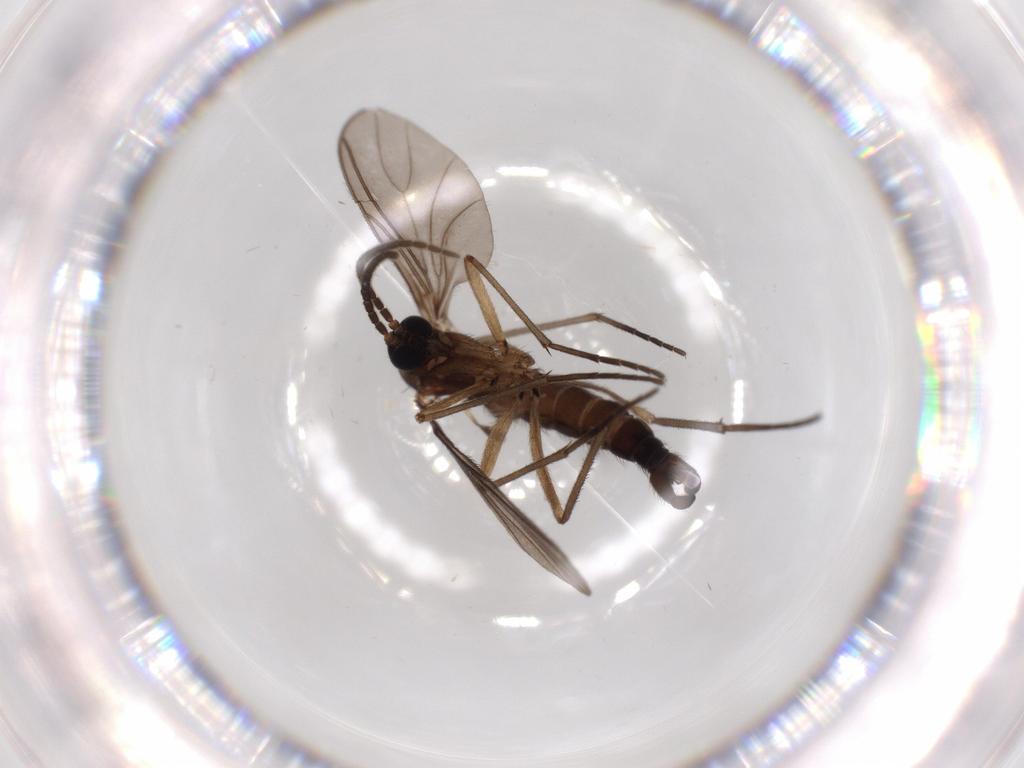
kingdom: Animalia
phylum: Arthropoda
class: Insecta
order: Diptera
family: Sciaridae
